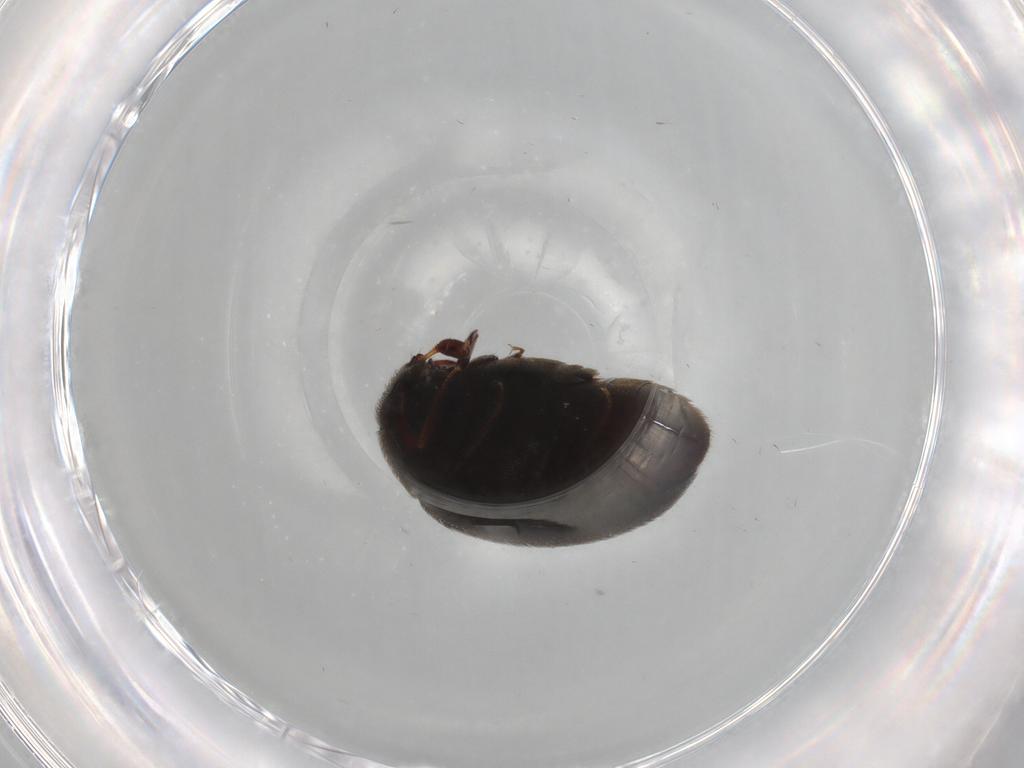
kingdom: Animalia
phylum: Arthropoda
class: Insecta
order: Coleoptera
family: Dermestidae
